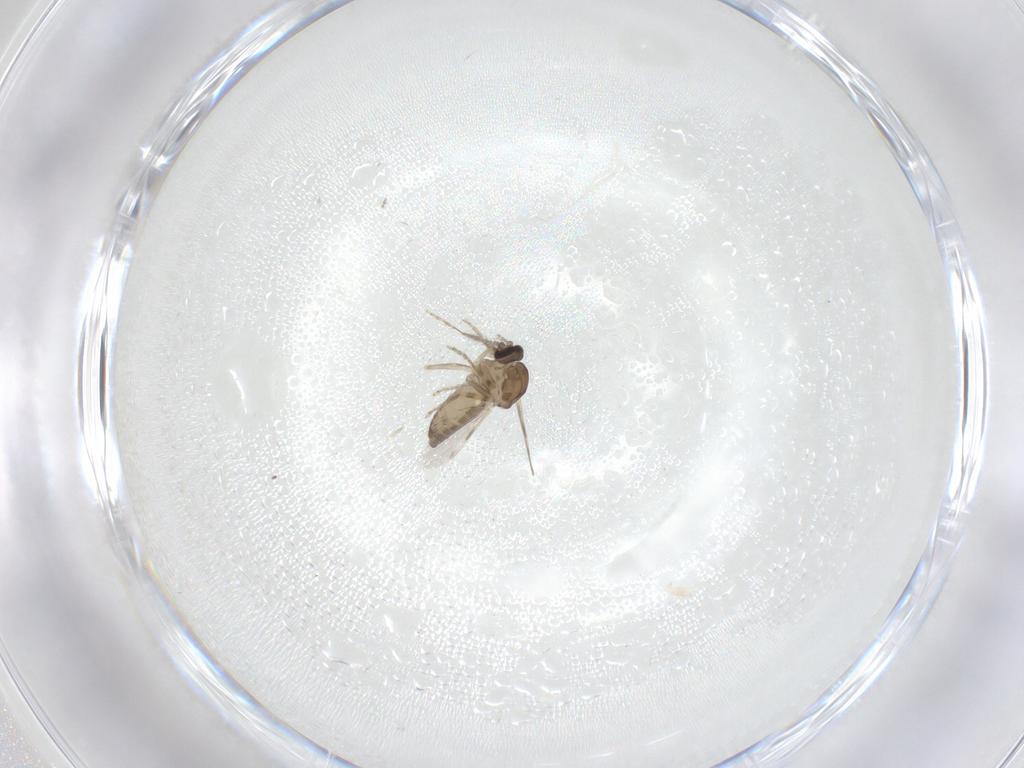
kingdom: Animalia
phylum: Arthropoda
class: Insecta
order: Diptera
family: Ceratopogonidae
